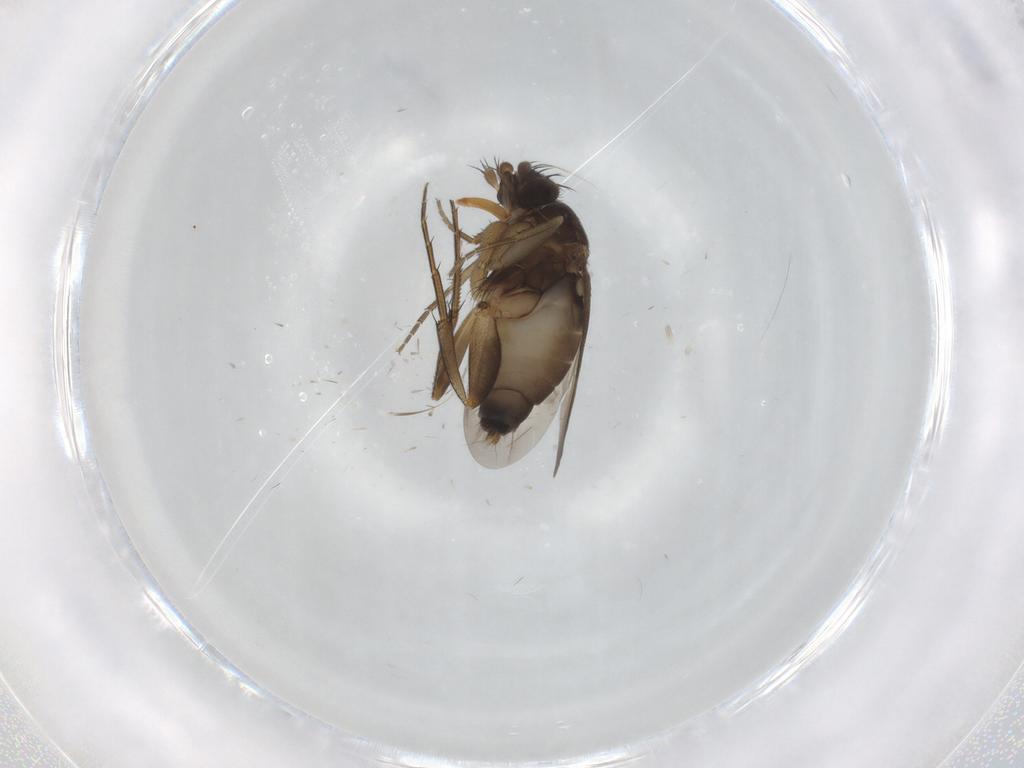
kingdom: Animalia
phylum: Arthropoda
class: Insecta
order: Diptera
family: Phoridae
